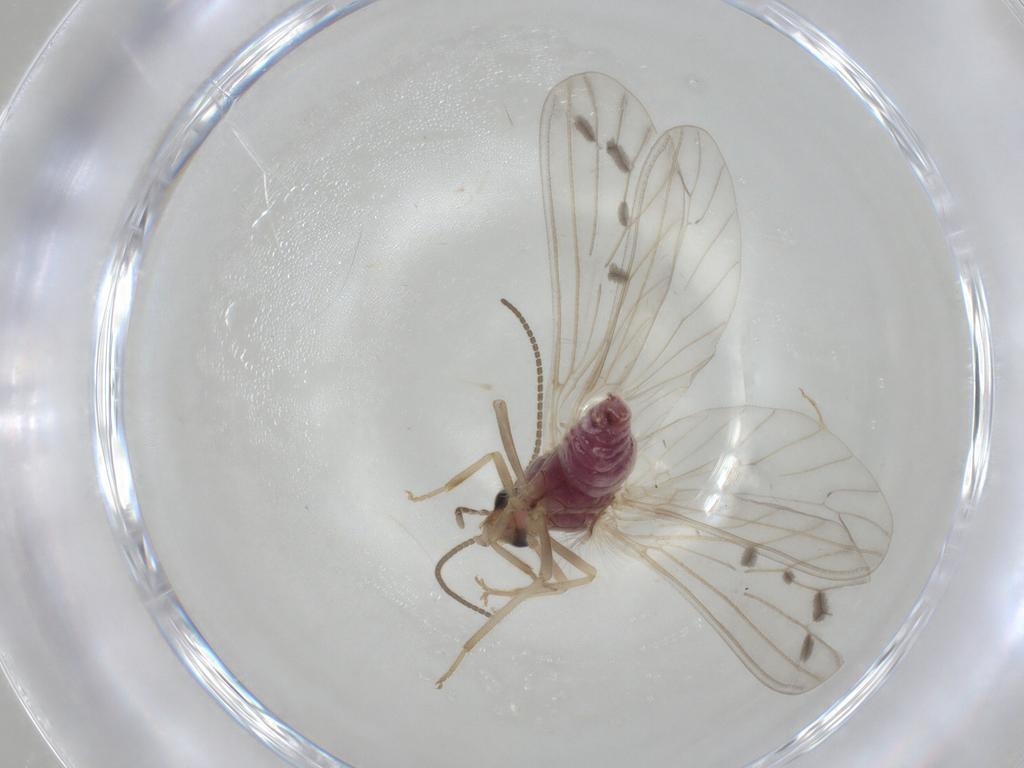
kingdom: Animalia
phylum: Arthropoda
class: Insecta
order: Neuroptera
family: Coniopterygidae
